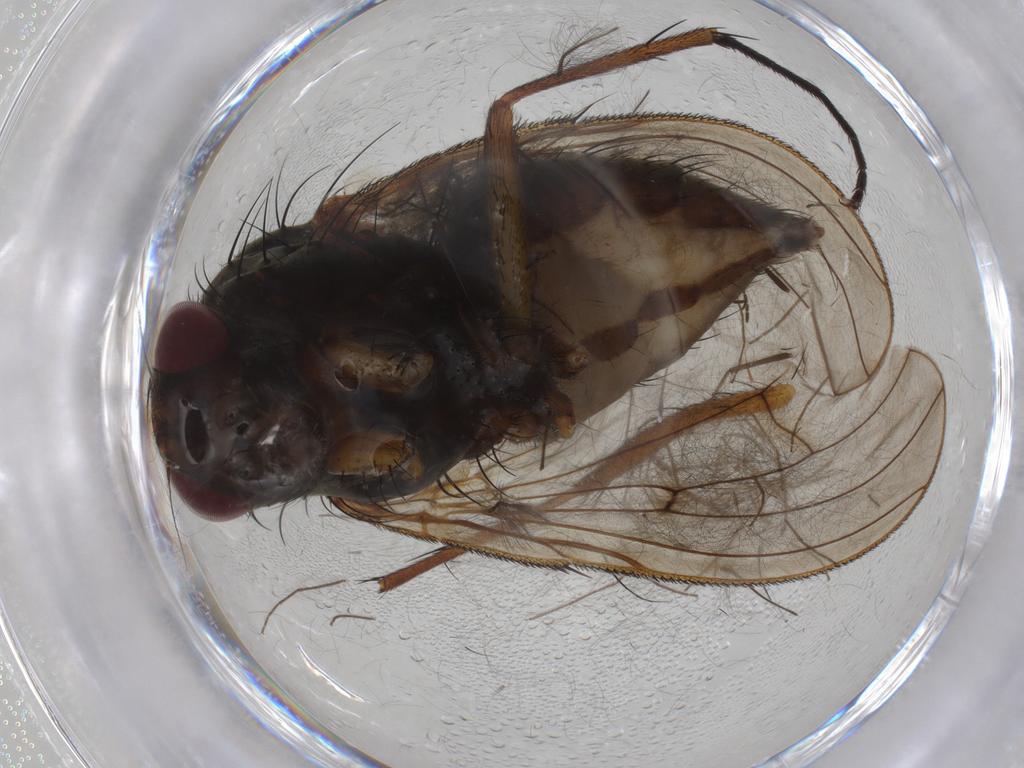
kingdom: Animalia
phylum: Arthropoda
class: Insecta
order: Diptera
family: Anthomyiidae
